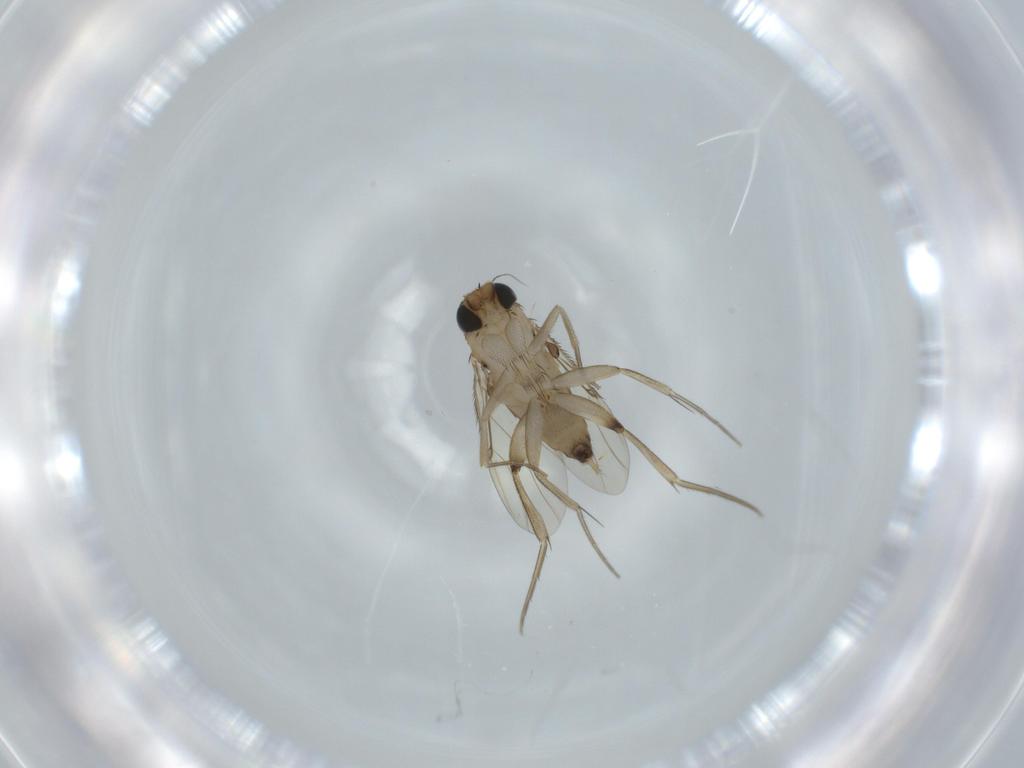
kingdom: Animalia
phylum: Arthropoda
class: Insecta
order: Diptera
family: Phoridae
